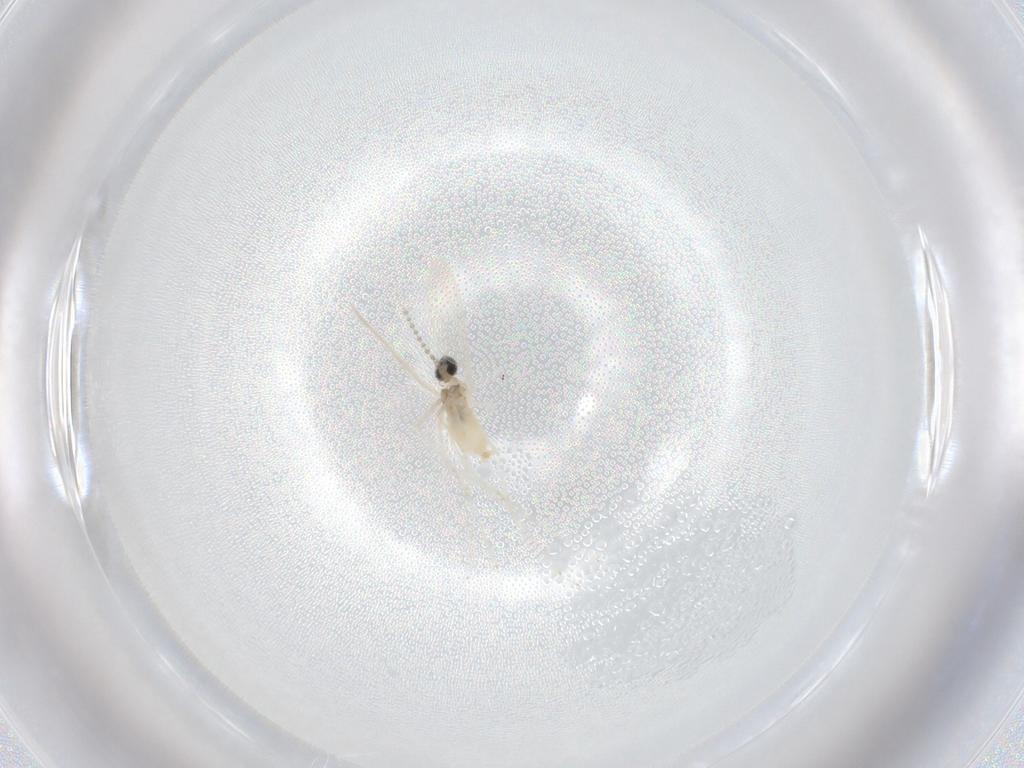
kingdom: Animalia
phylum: Arthropoda
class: Insecta
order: Diptera
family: Cecidomyiidae
